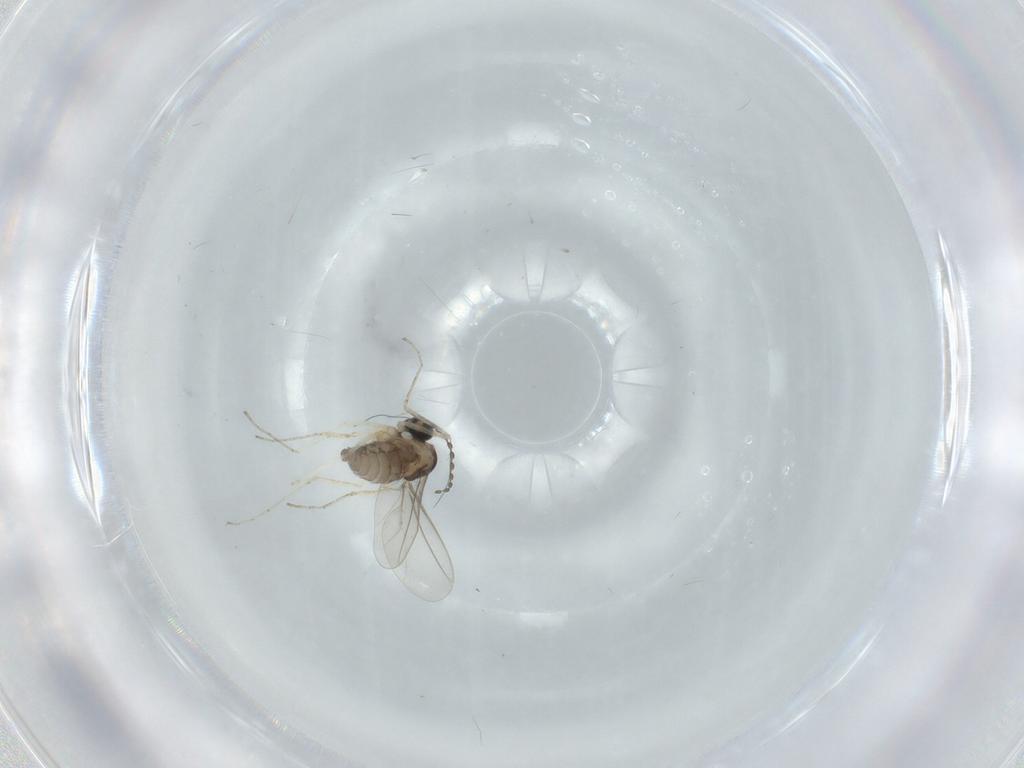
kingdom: Animalia
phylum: Arthropoda
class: Insecta
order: Diptera
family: Cecidomyiidae
